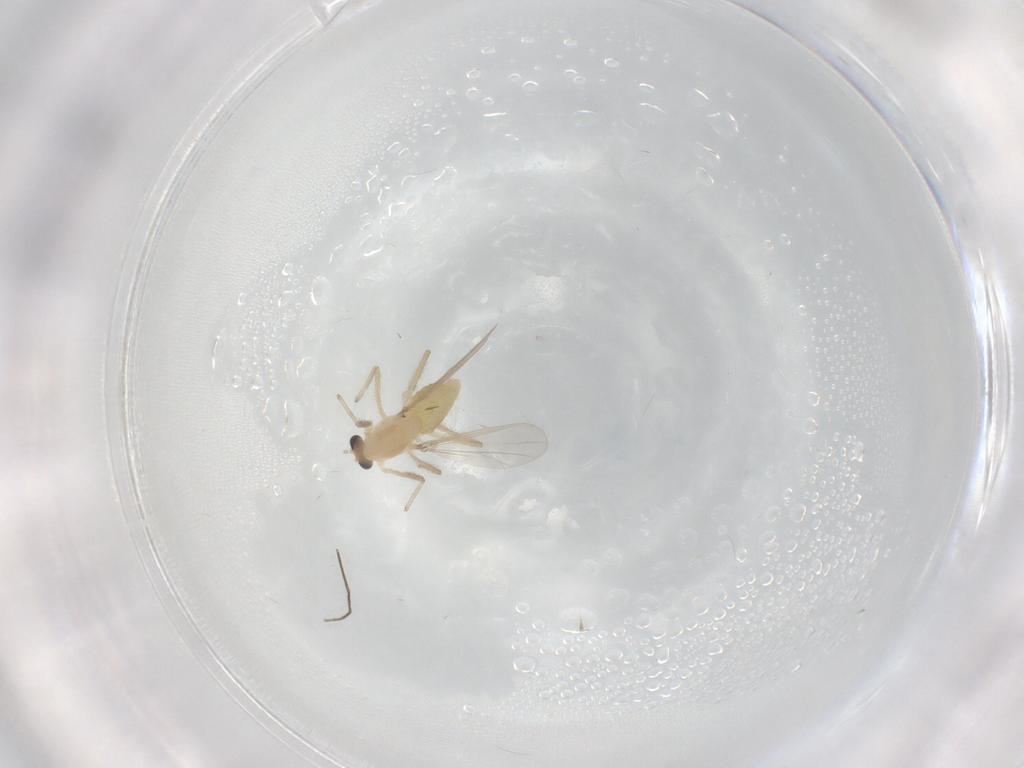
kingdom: Animalia
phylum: Arthropoda
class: Insecta
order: Diptera
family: Chironomidae
